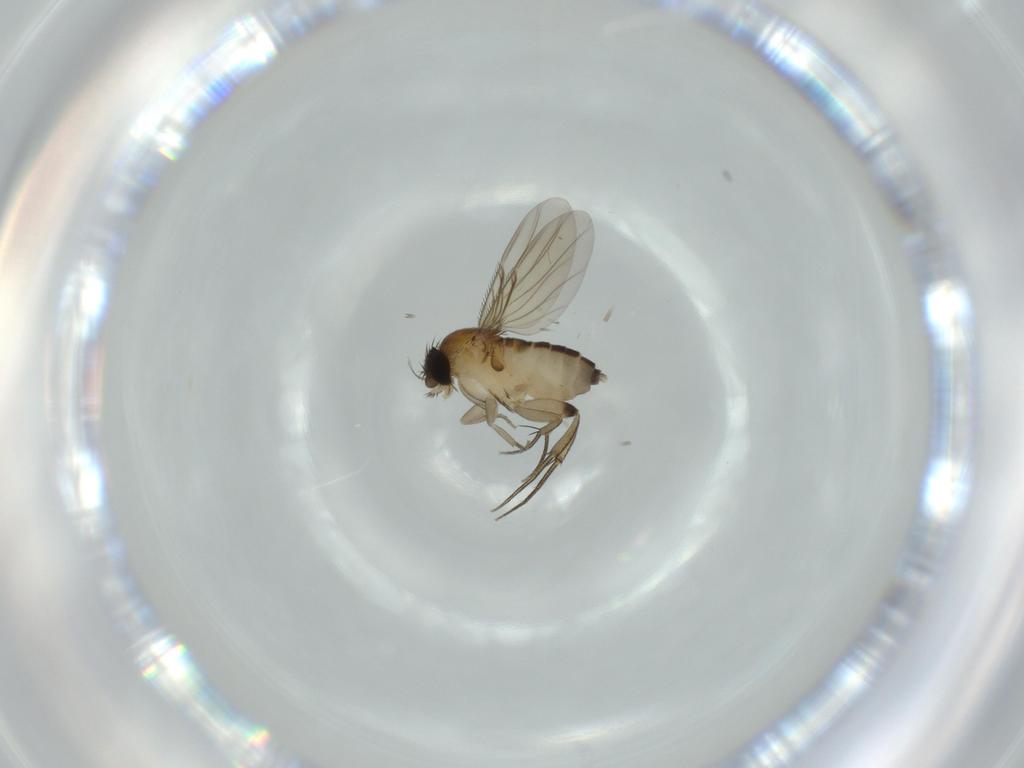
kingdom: Animalia
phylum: Arthropoda
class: Insecta
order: Diptera
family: Phoridae
